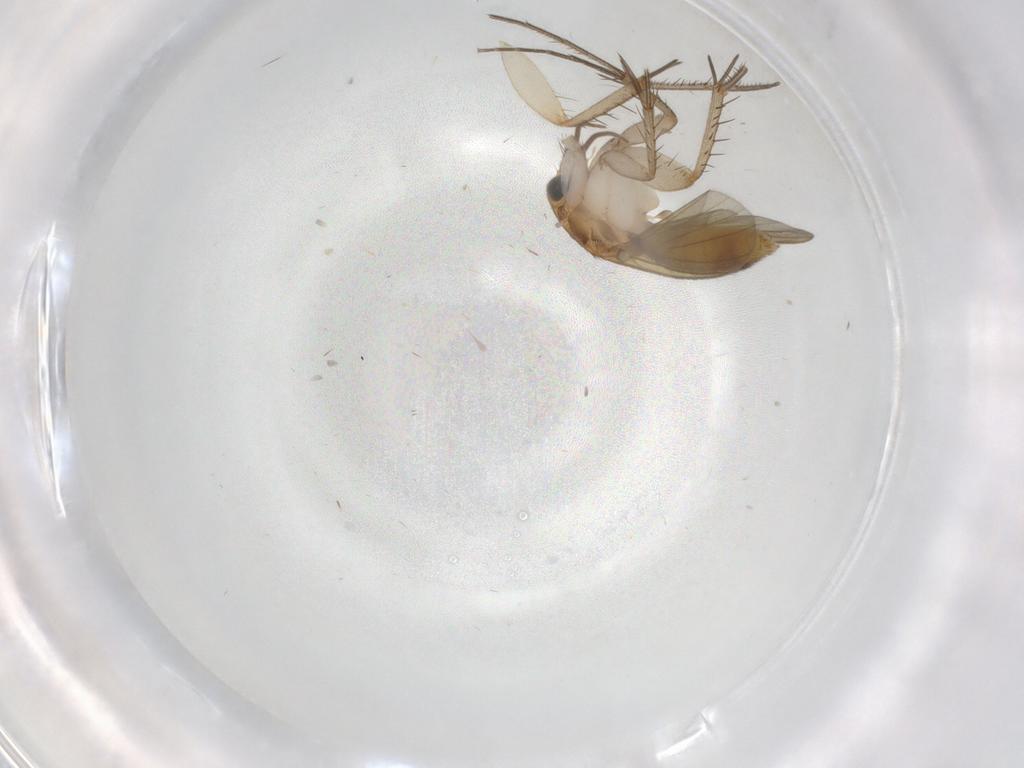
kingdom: Animalia
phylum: Arthropoda
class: Insecta
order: Diptera
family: Mycetophilidae
